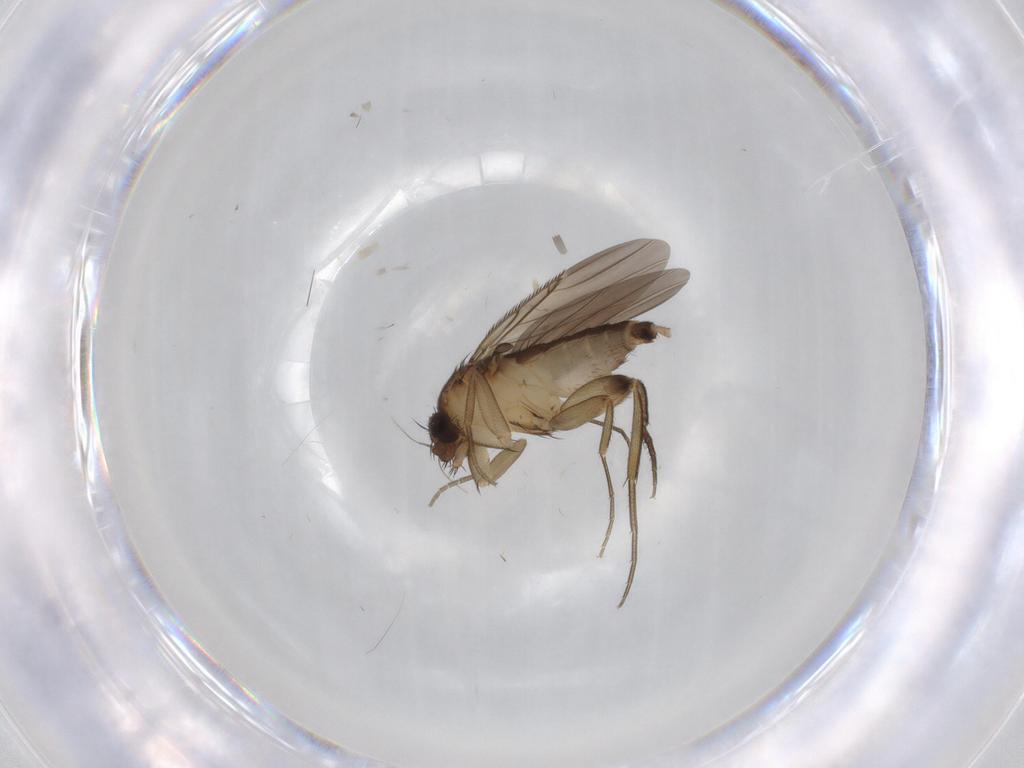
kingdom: Animalia
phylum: Arthropoda
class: Insecta
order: Diptera
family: Phoridae
